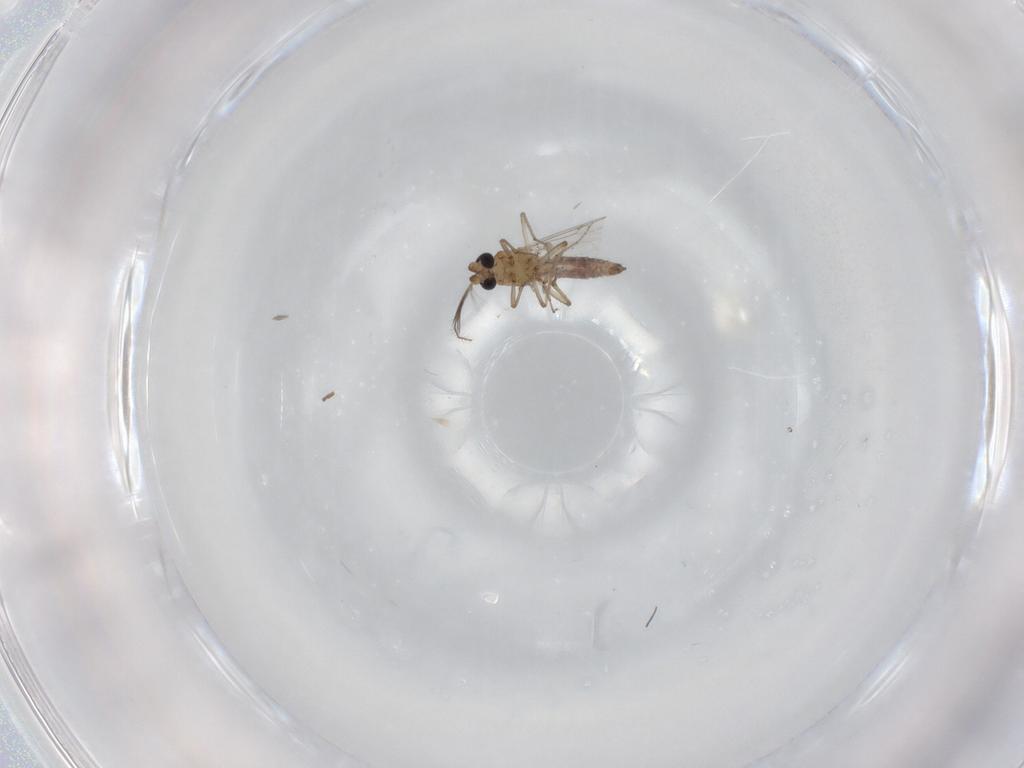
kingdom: Animalia
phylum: Arthropoda
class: Insecta
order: Diptera
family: Ceratopogonidae
